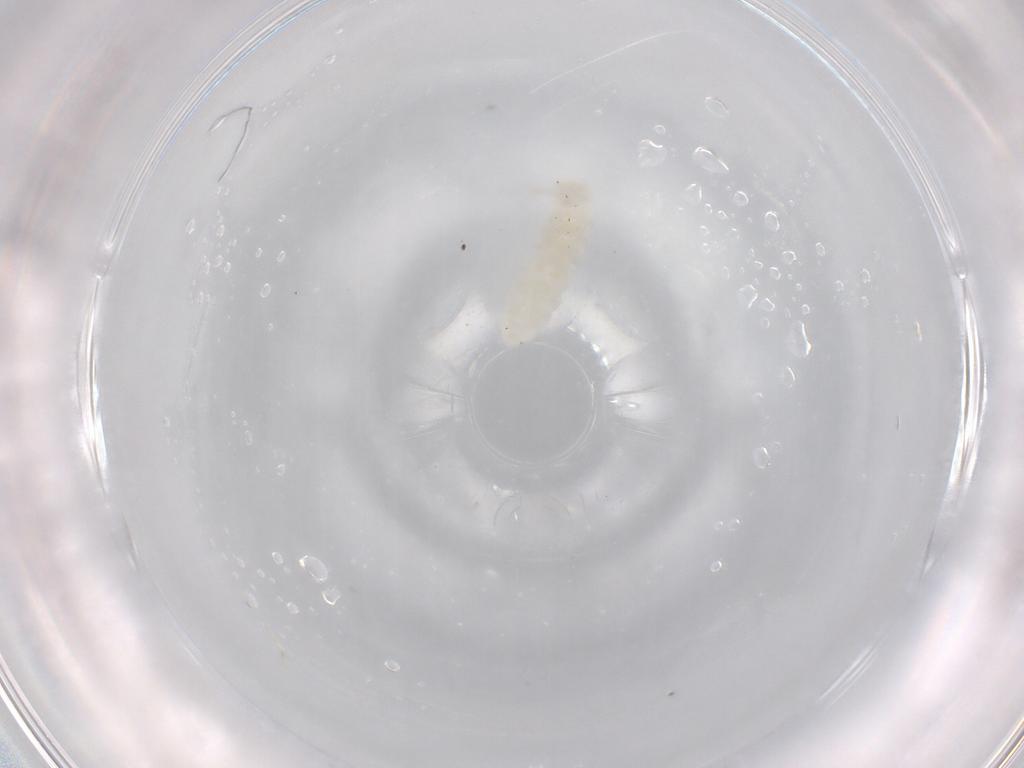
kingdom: Animalia
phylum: Arthropoda
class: Collembola
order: Poduromorpha
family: Onychiuridae
